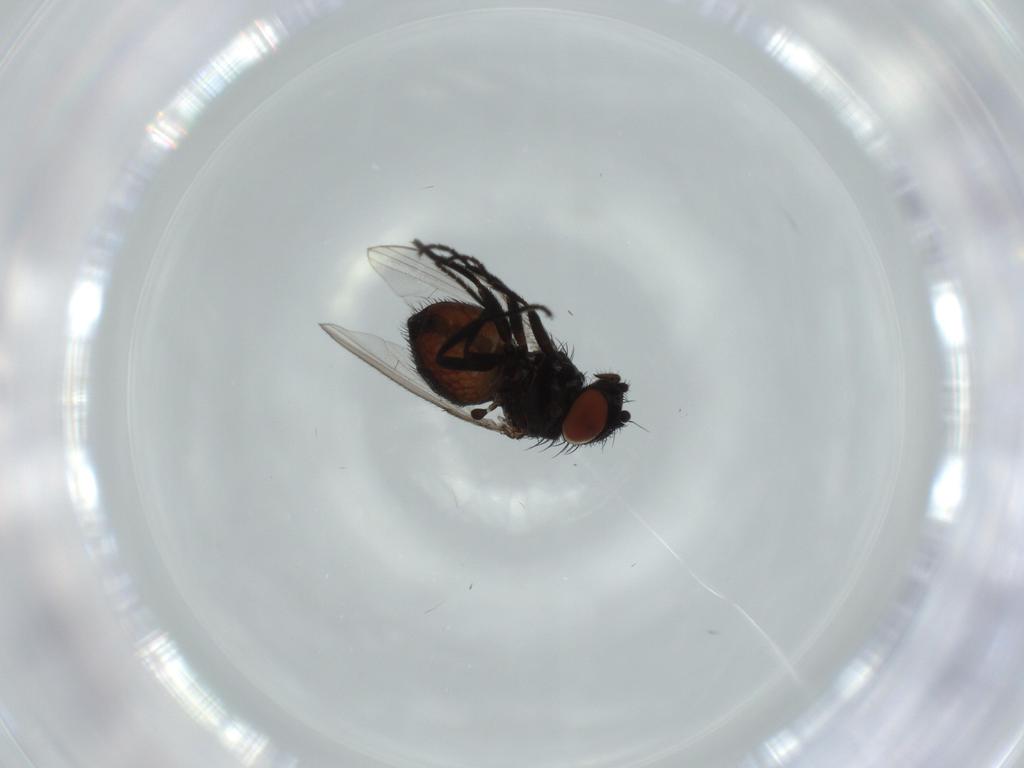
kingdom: Animalia
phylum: Arthropoda
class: Insecta
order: Diptera
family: Milichiidae
